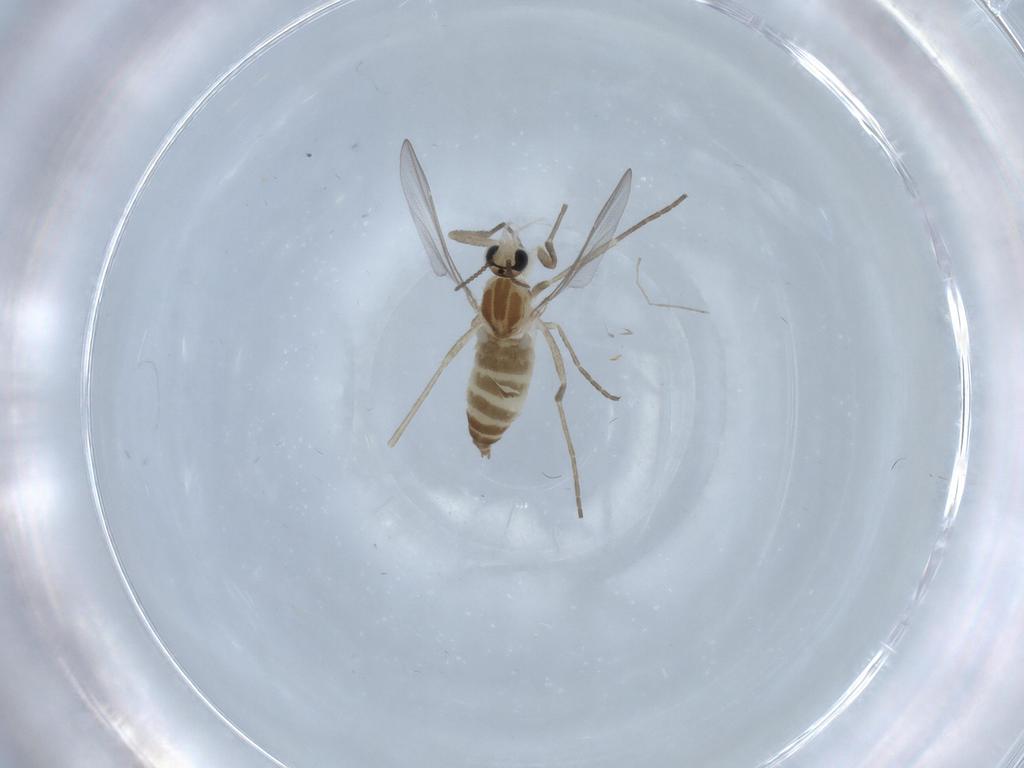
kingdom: Animalia
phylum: Arthropoda
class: Insecta
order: Diptera
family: Cecidomyiidae
